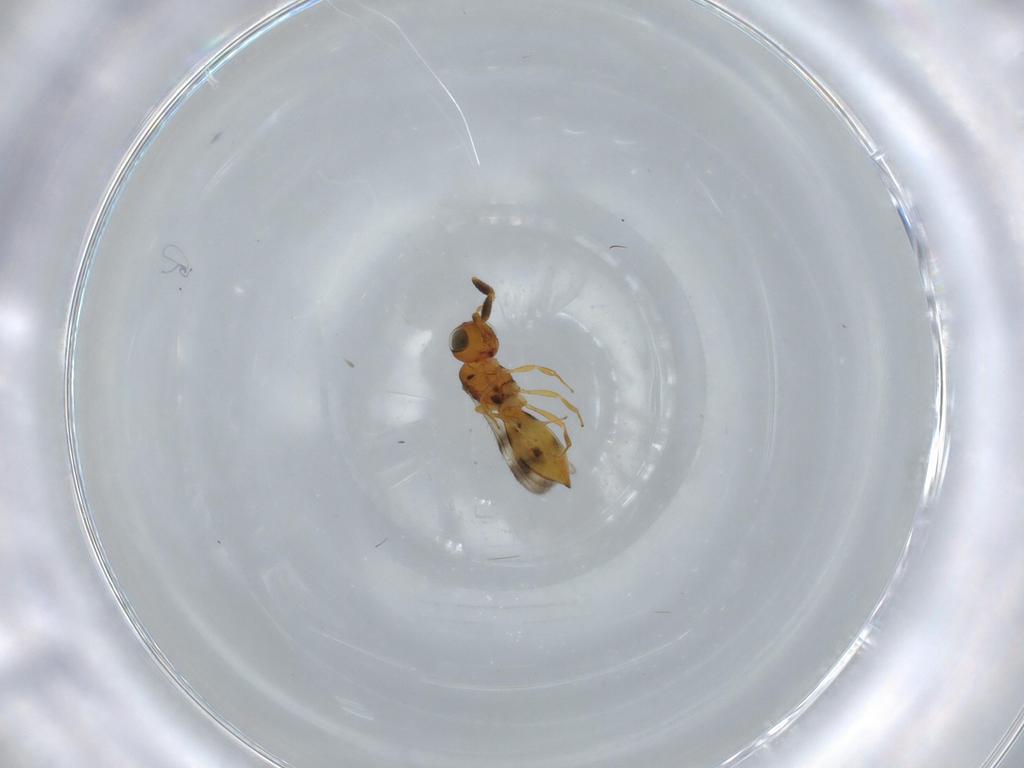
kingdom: Animalia
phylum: Arthropoda
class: Insecta
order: Hymenoptera
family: Scelionidae
